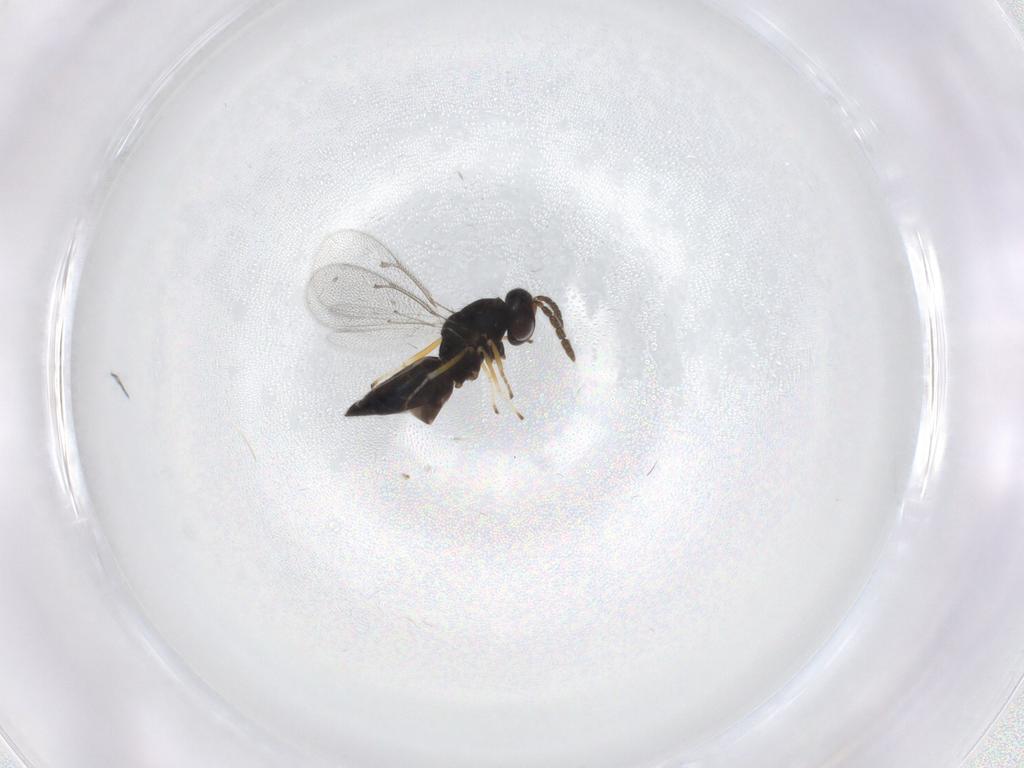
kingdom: Animalia
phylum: Arthropoda
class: Insecta
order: Hymenoptera
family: Eulophidae
